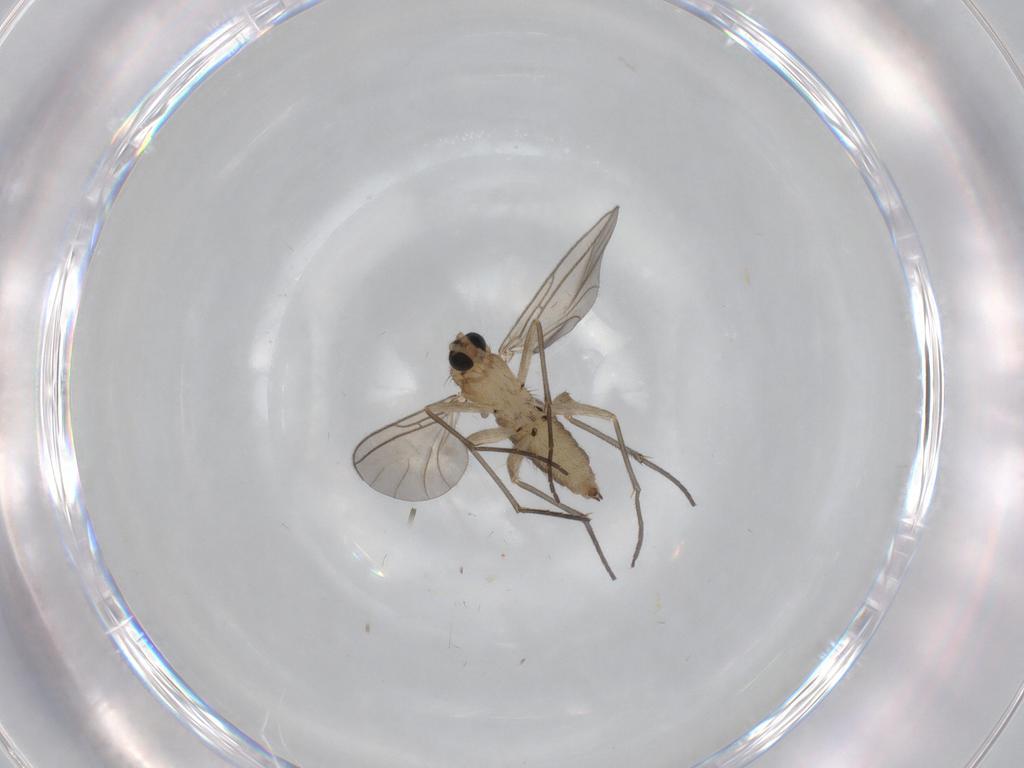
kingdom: Animalia
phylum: Arthropoda
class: Insecta
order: Diptera
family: Sciaridae
